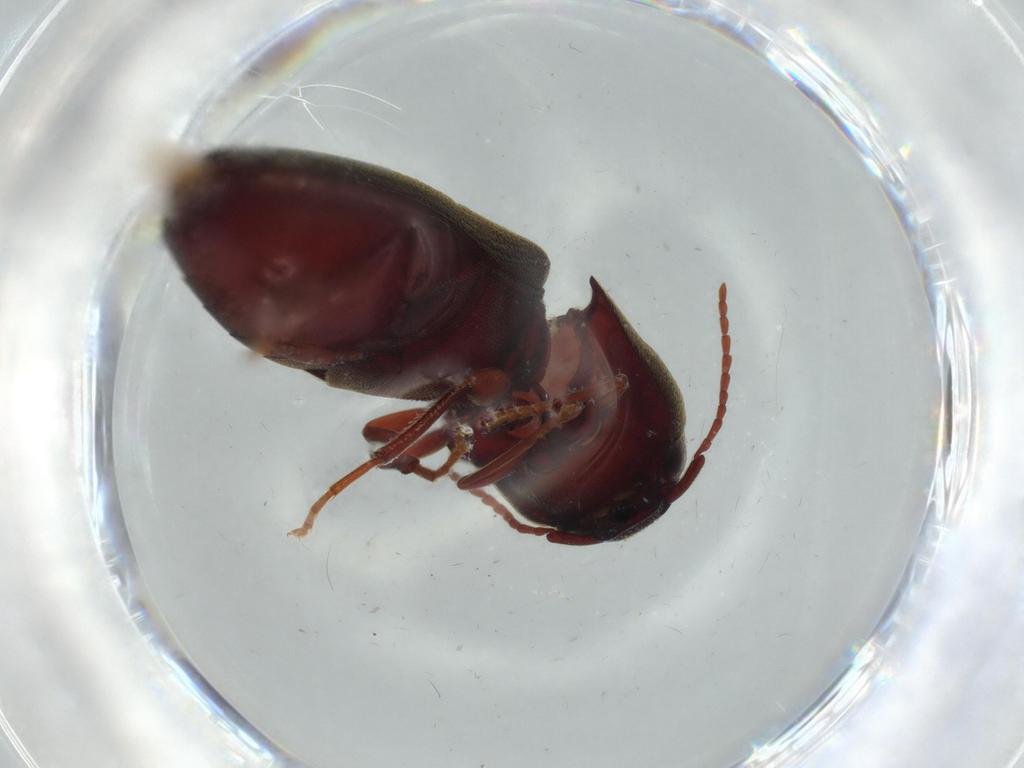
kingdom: Animalia
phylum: Arthropoda
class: Insecta
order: Coleoptera
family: Eucnemidae
